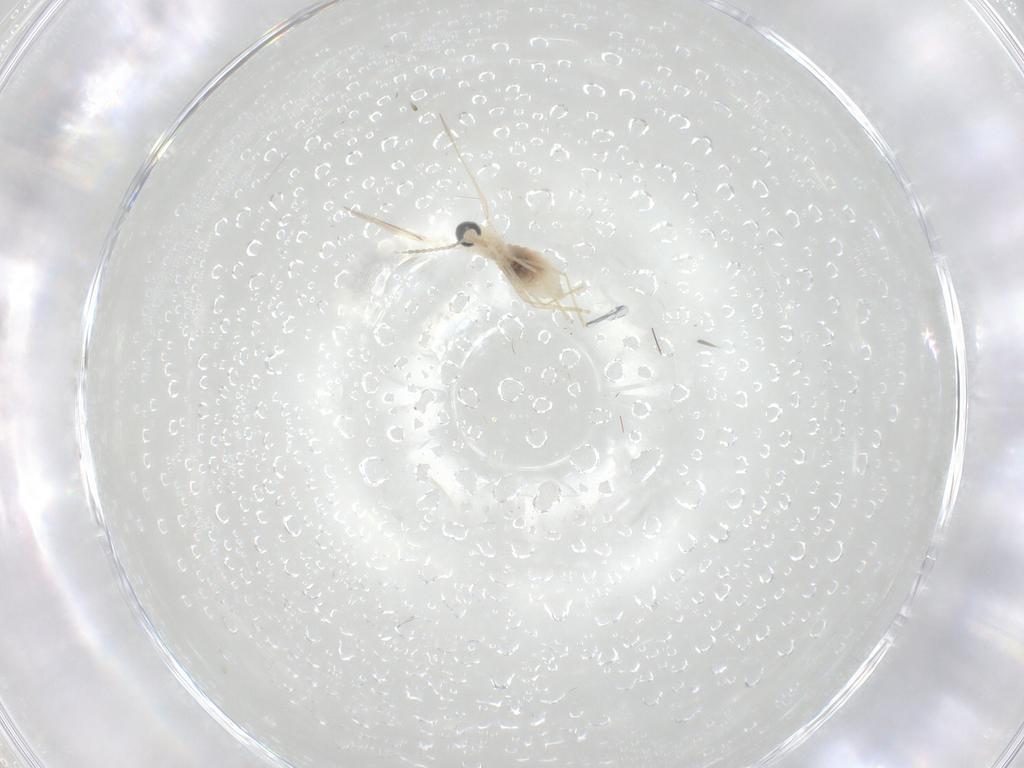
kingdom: Animalia
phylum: Arthropoda
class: Insecta
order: Diptera
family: Cecidomyiidae
